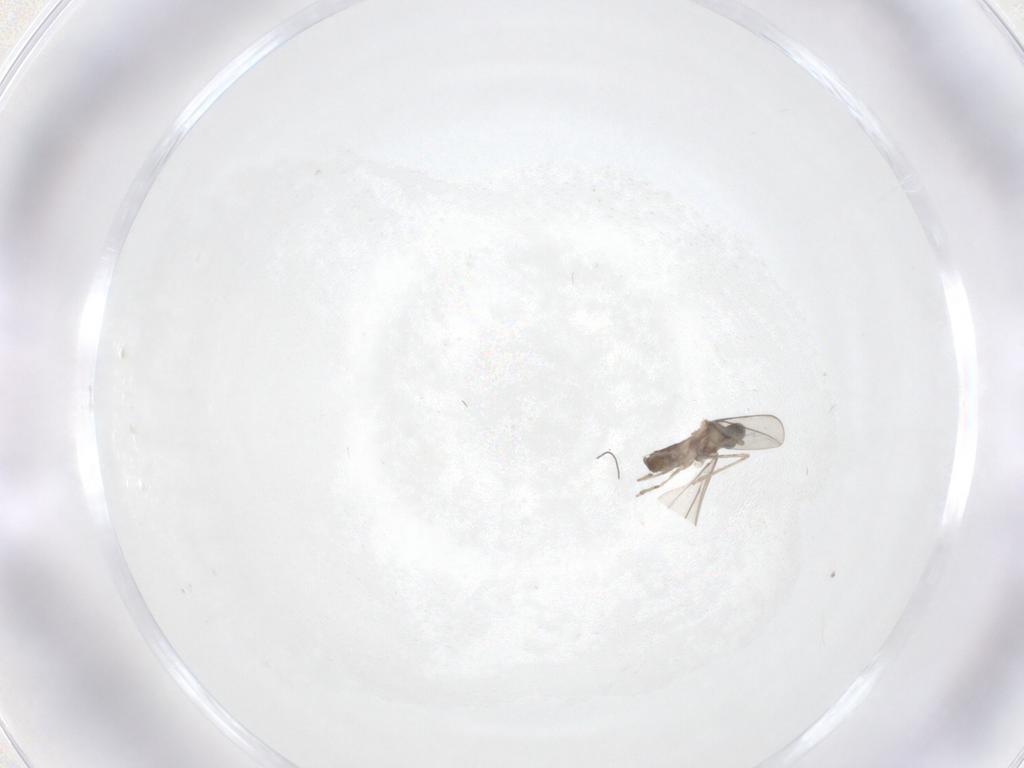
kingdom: Animalia
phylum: Arthropoda
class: Insecta
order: Diptera
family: Cecidomyiidae
